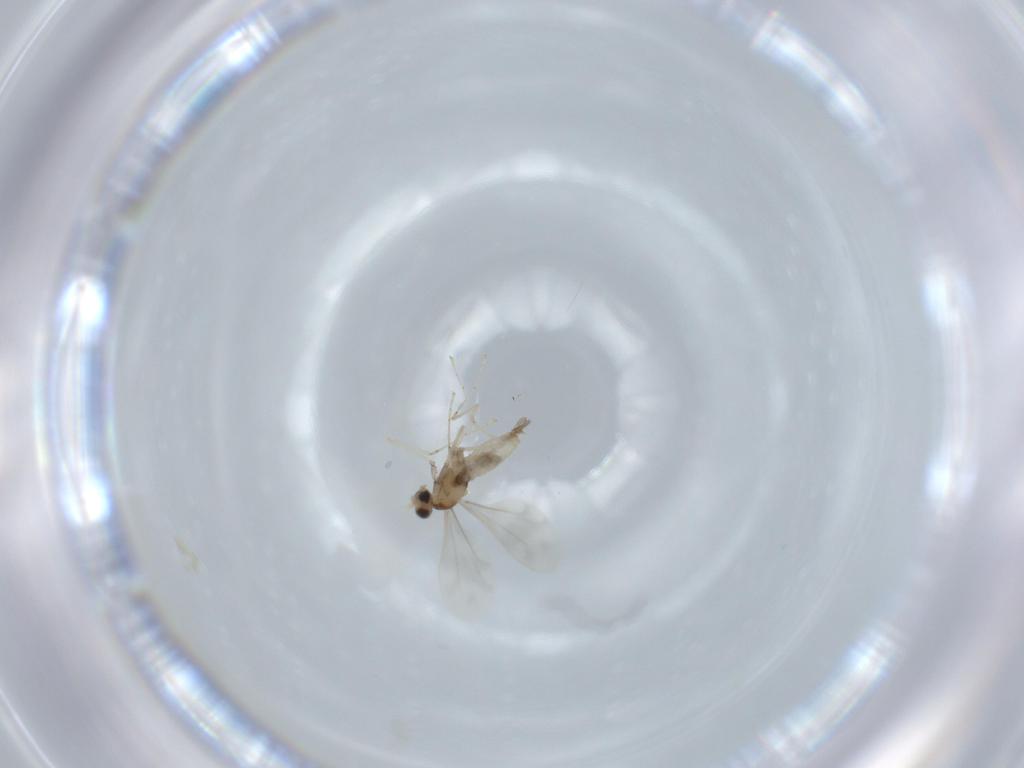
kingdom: Animalia
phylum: Arthropoda
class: Insecta
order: Diptera
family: Cecidomyiidae
